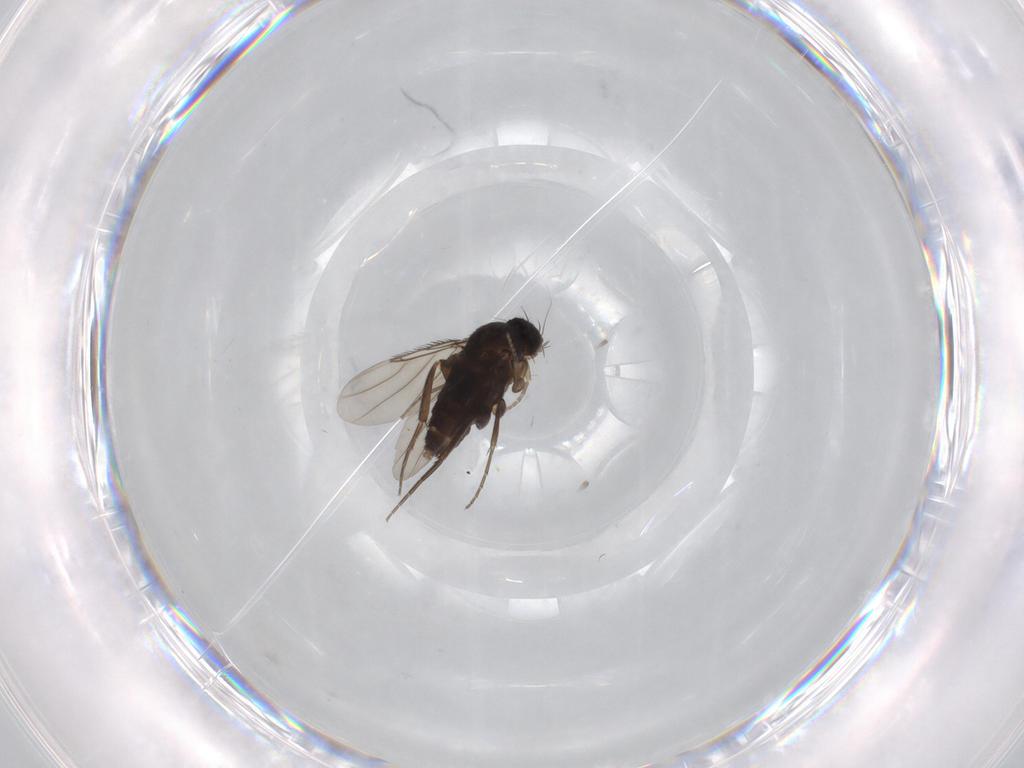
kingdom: Animalia
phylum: Arthropoda
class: Insecta
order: Diptera
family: Phoridae
